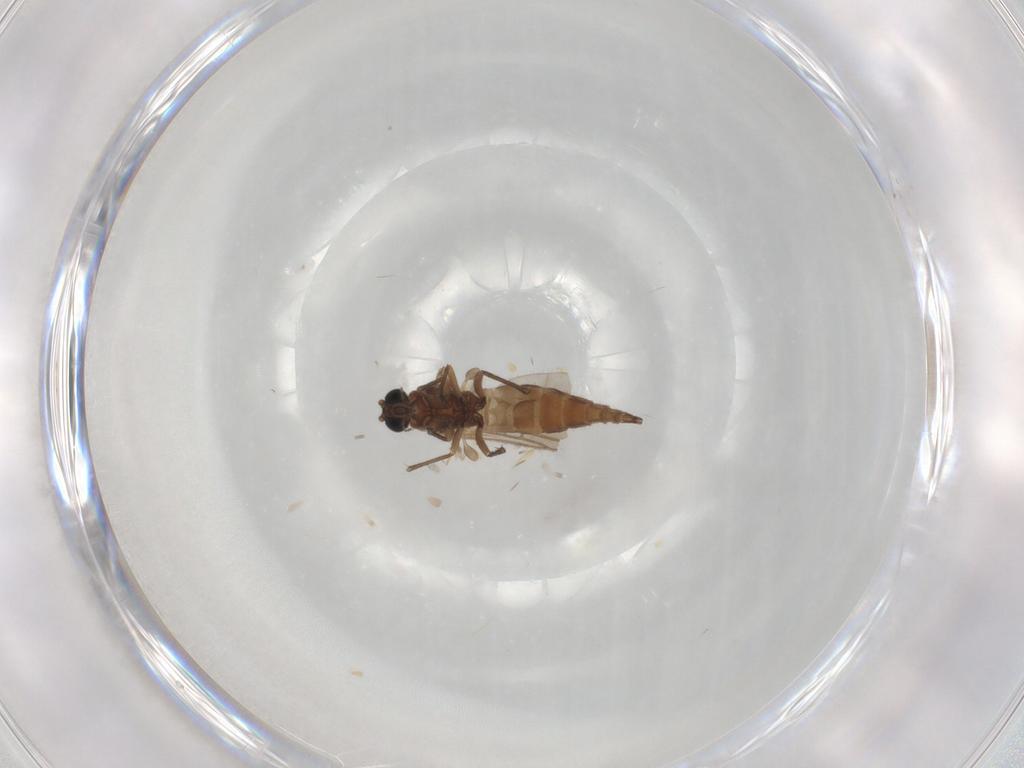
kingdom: Animalia
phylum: Arthropoda
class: Insecta
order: Diptera
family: Sciaridae
